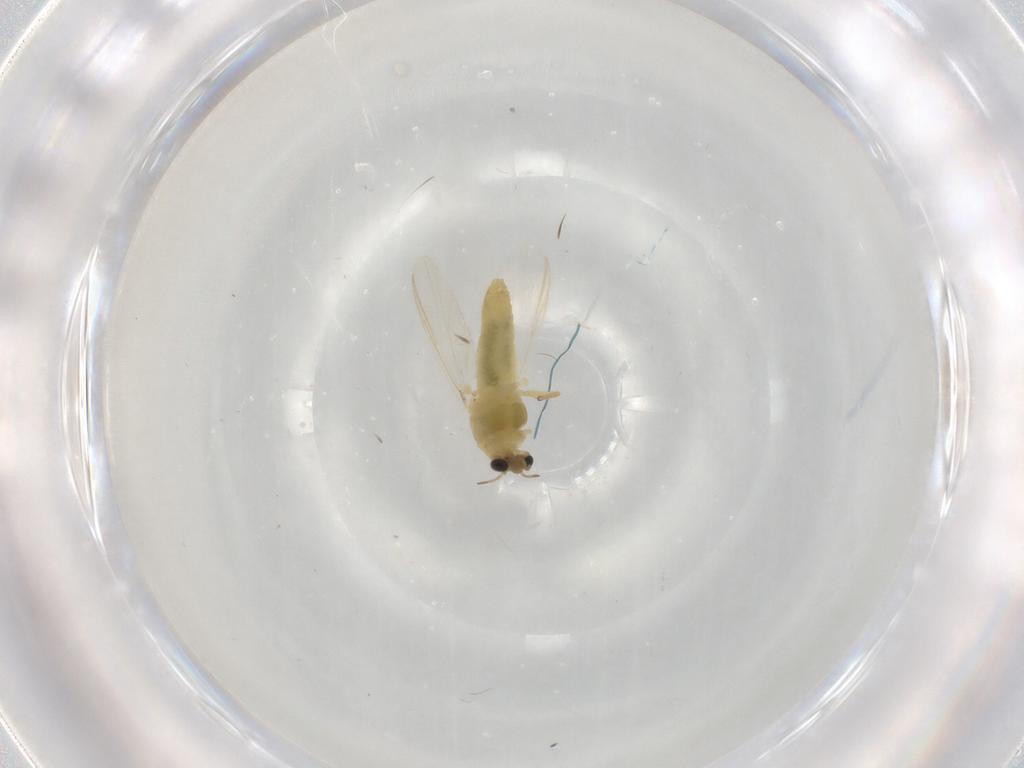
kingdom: Animalia
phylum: Arthropoda
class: Insecta
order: Diptera
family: Chironomidae
